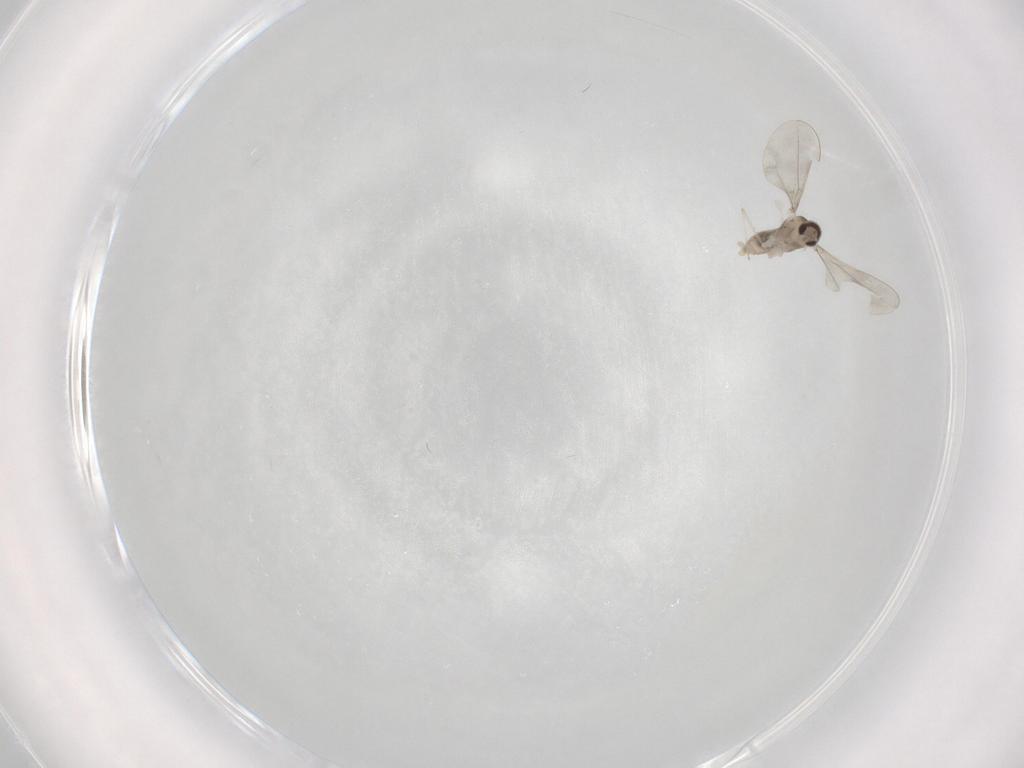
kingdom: Animalia
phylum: Arthropoda
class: Insecta
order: Diptera
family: Cecidomyiidae
